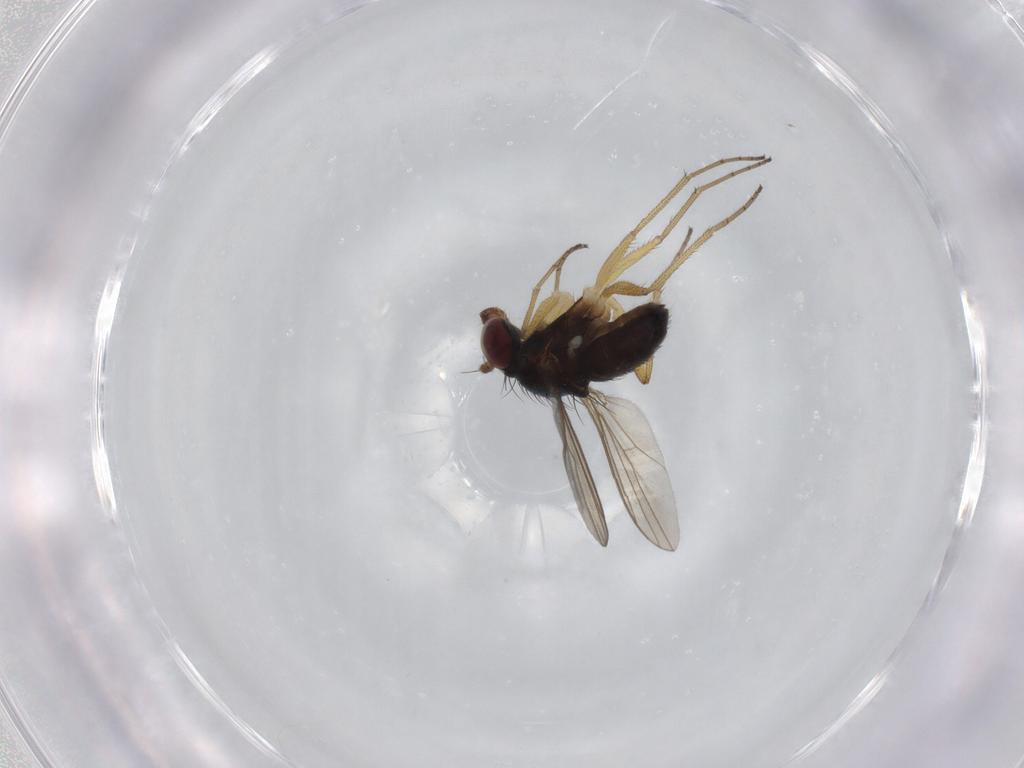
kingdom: Animalia
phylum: Arthropoda
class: Insecta
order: Diptera
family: Dolichopodidae
